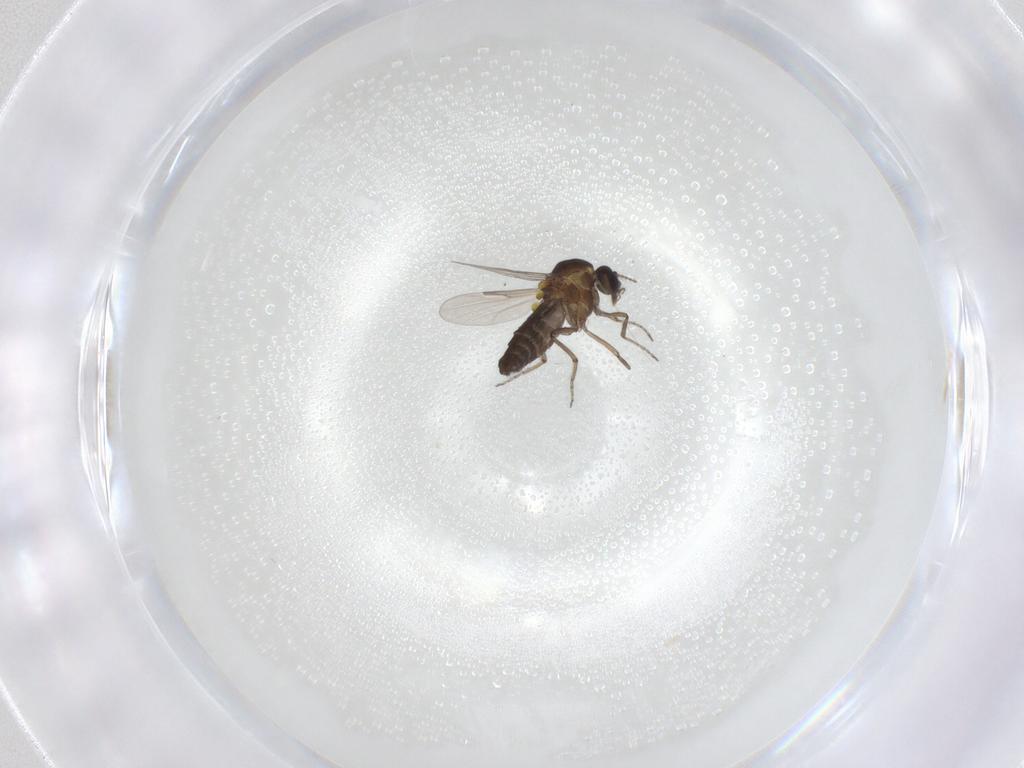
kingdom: Animalia
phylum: Arthropoda
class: Insecta
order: Diptera
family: Ceratopogonidae
